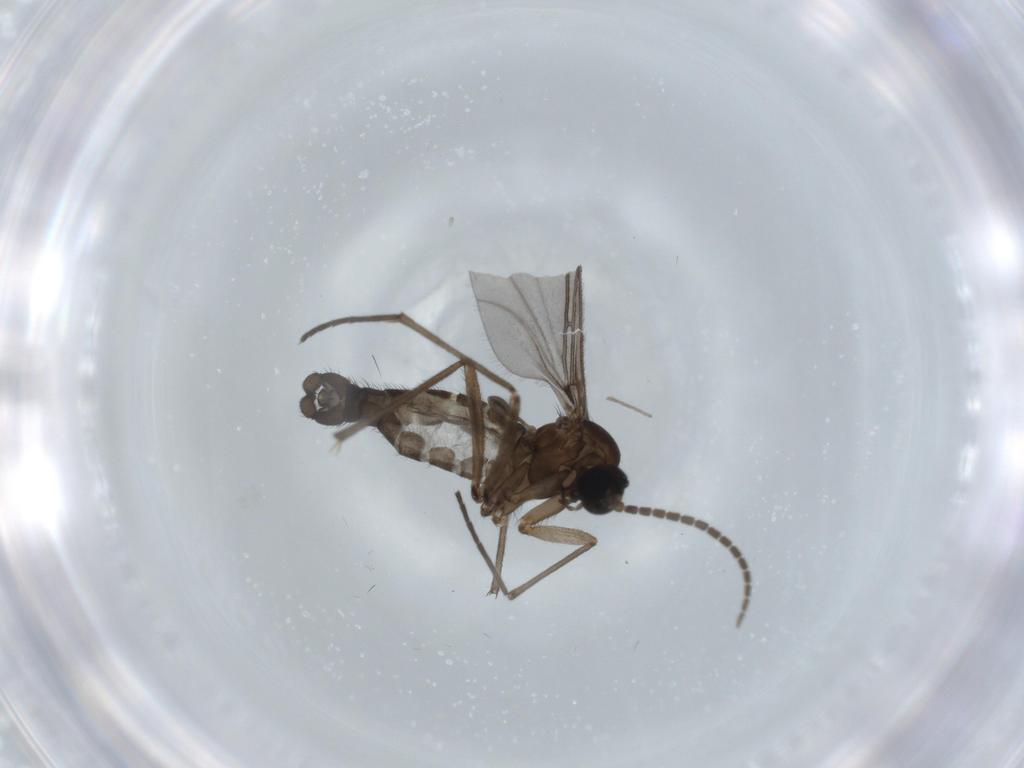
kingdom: Animalia
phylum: Arthropoda
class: Insecta
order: Diptera
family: Sciaridae
